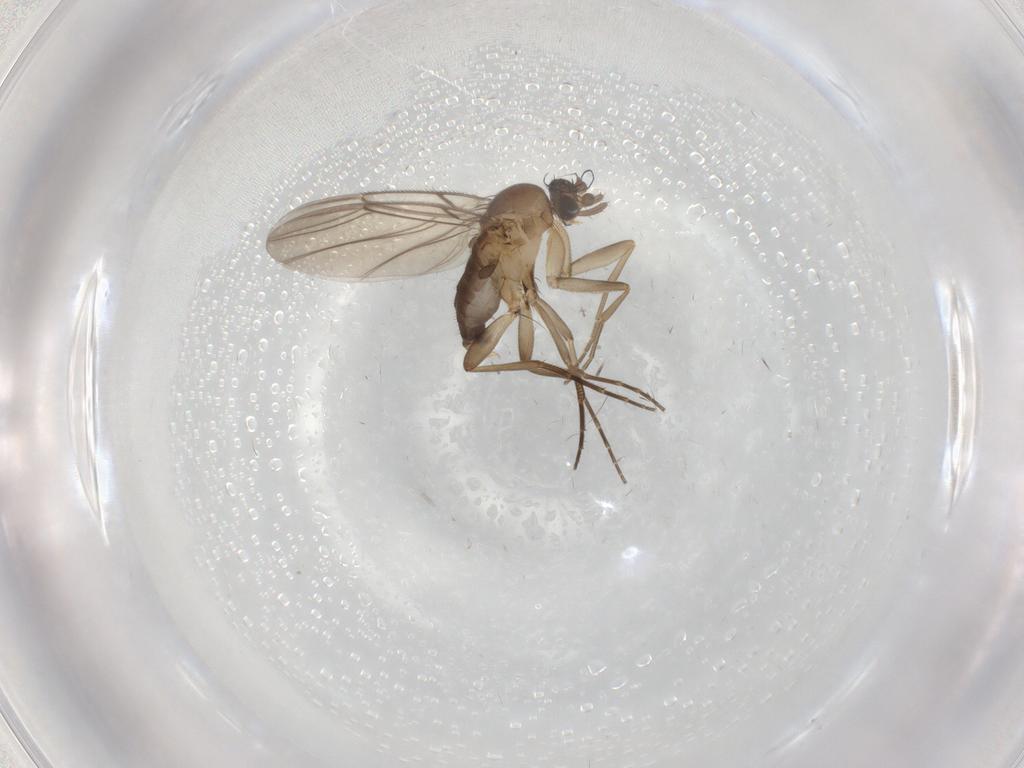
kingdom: Animalia
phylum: Arthropoda
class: Insecta
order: Diptera
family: Phoridae
